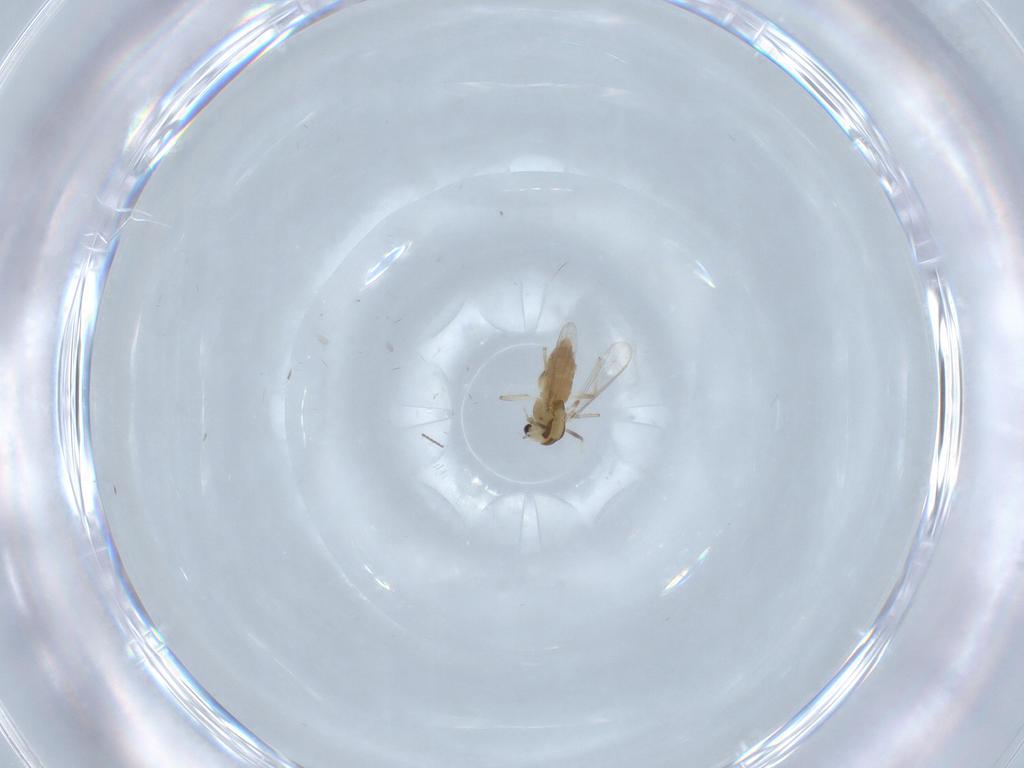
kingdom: Animalia
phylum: Arthropoda
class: Insecta
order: Diptera
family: Chironomidae
